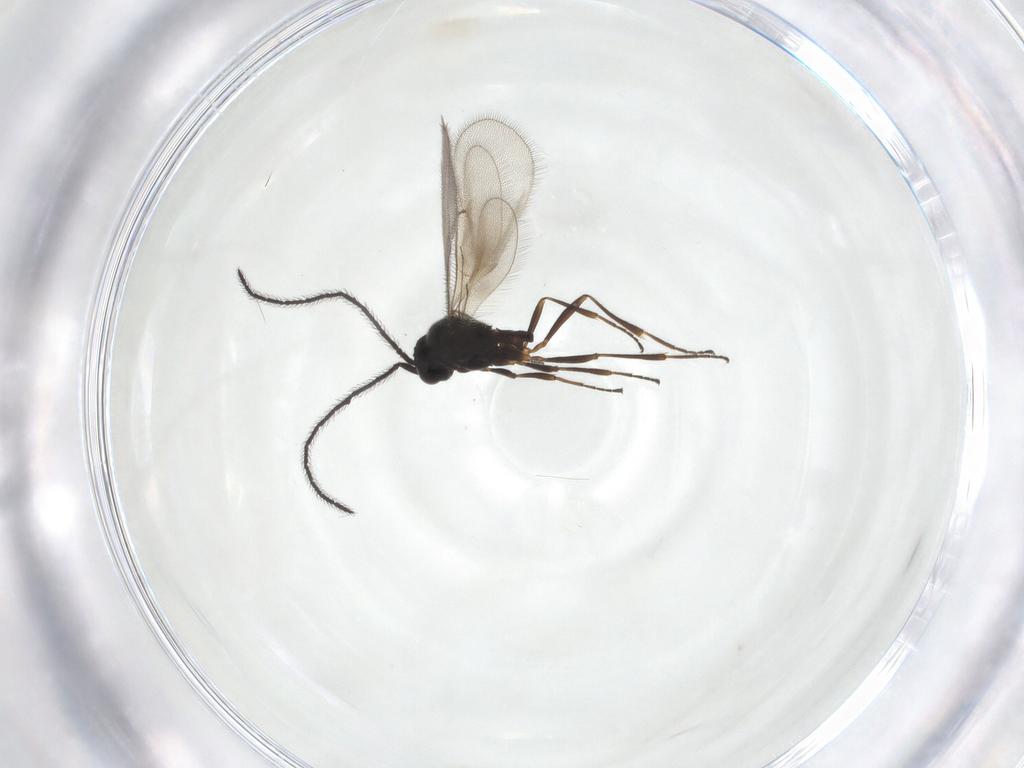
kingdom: Animalia
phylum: Arthropoda
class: Insecta
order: Hymenoptera
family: Scelionidae
